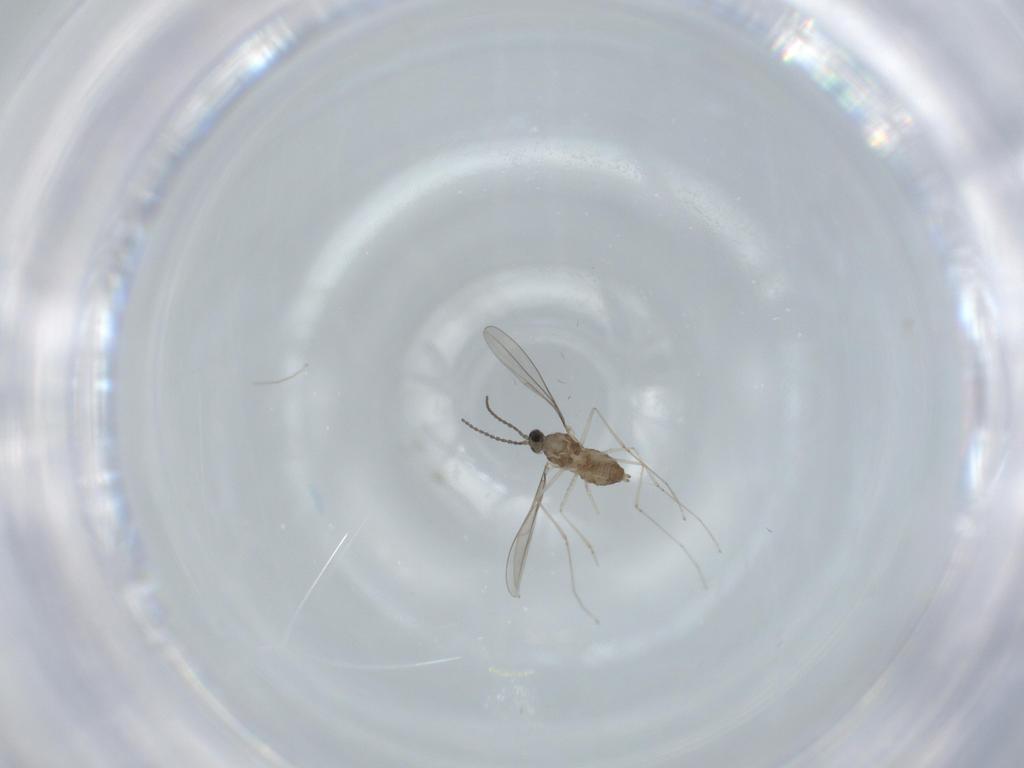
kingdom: Animalia
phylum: Arthropoda
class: Insecta
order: Diptera
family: Cecidomyiidae
